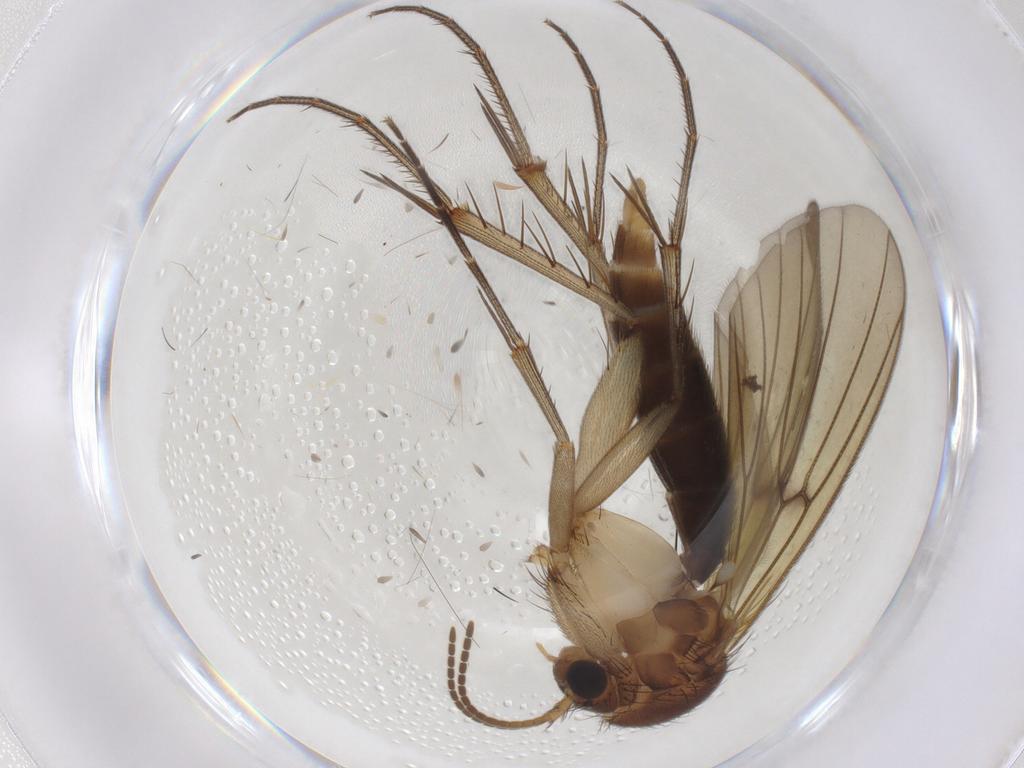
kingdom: Animalia
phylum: Arthropoda
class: Insecta
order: Diptera
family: Mycetophilidae
